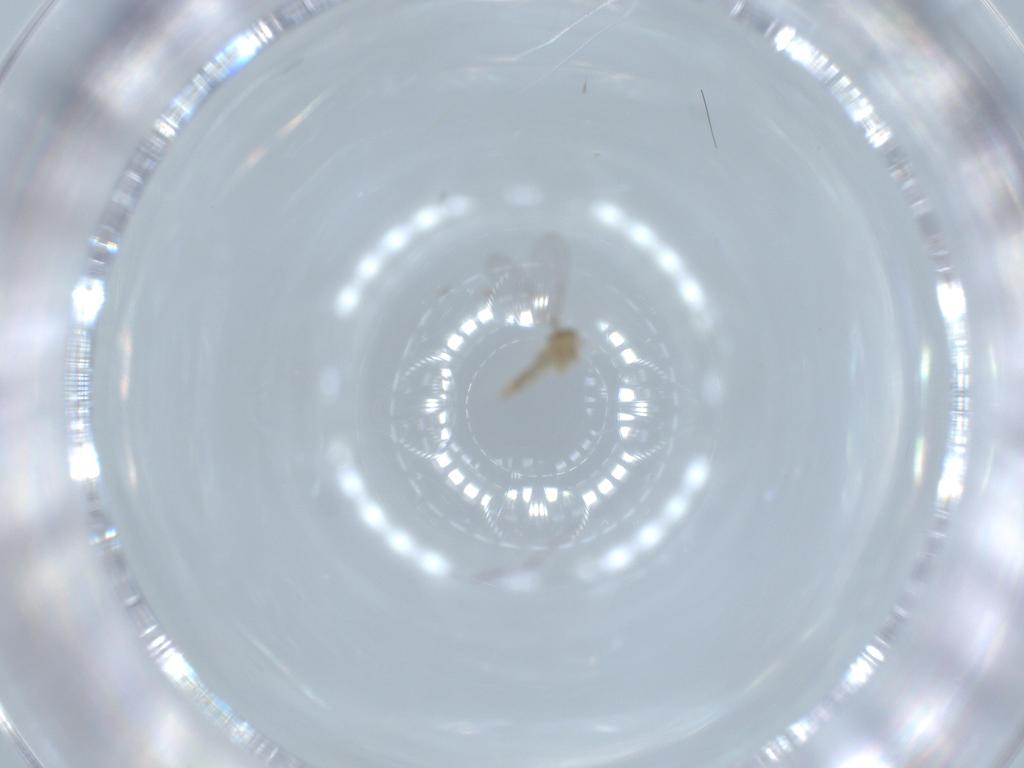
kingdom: Animalia
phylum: Arthropoda
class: Insecta
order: Diptera
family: Cecidomyiidae
